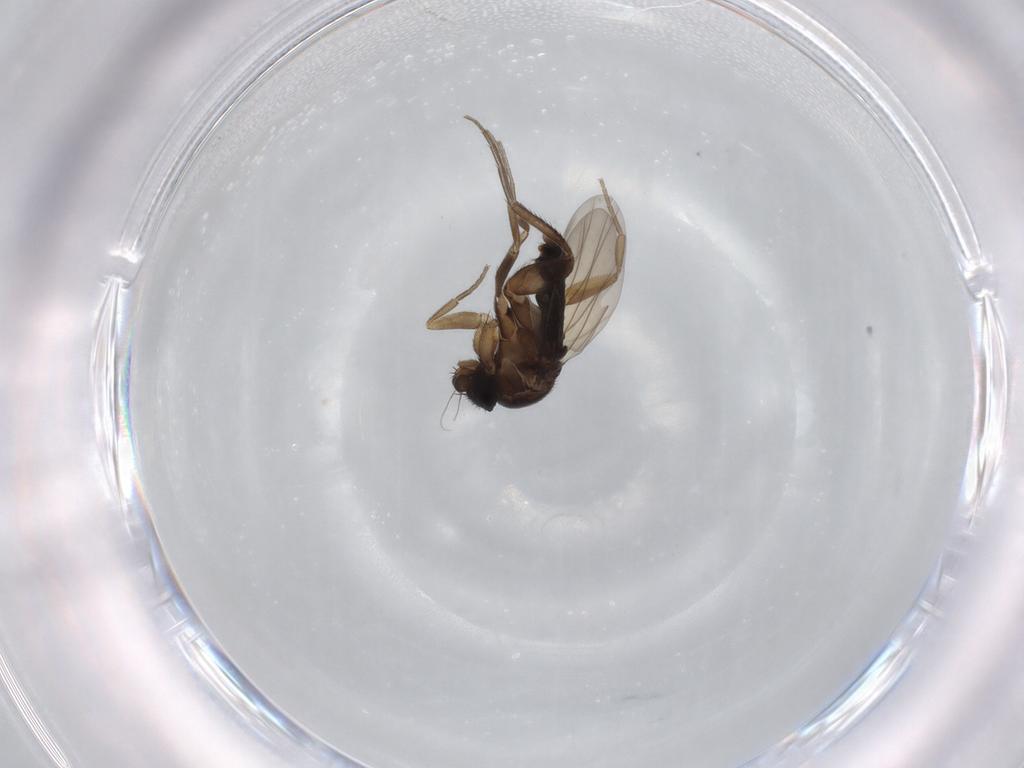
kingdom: Animalia
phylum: Arthropoda
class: Insecta
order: Diptera
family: Phoridae
